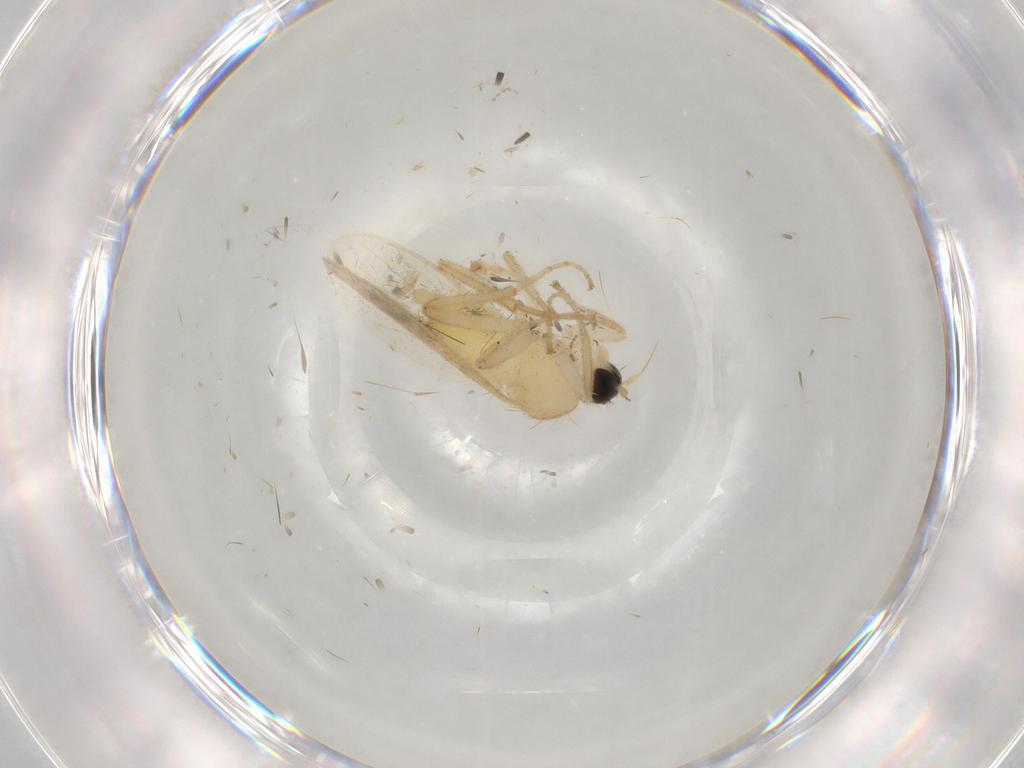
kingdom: Animalia
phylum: Arthropoda
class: Insecta
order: Diptera
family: Hybotidae
